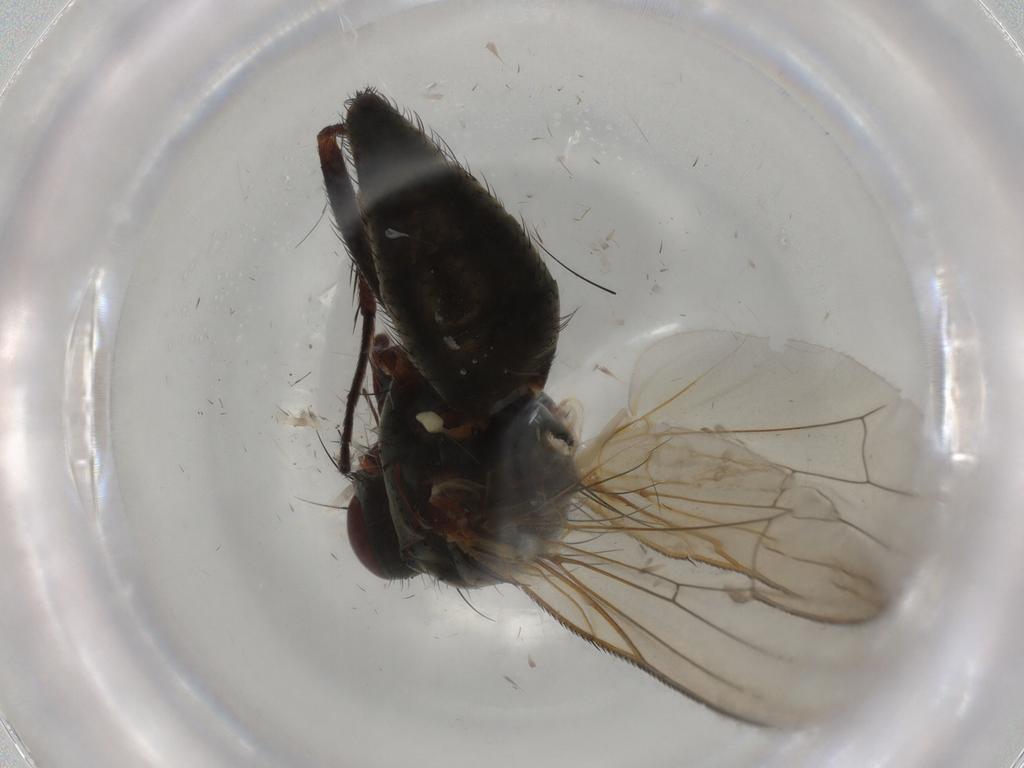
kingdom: Animalia
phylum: Arthropoda
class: Insecta
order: Diptera
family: Anthomyiidae
